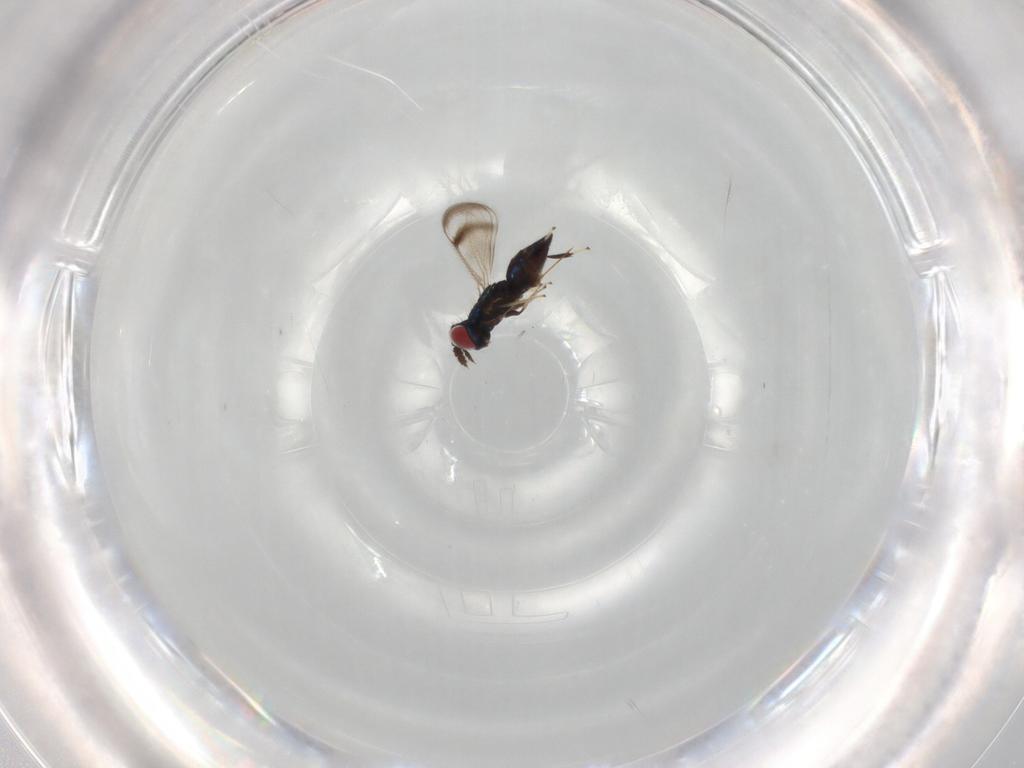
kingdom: Animalia
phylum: Arthropoda
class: Insecta
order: Hymenoptera
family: Eulophidae
